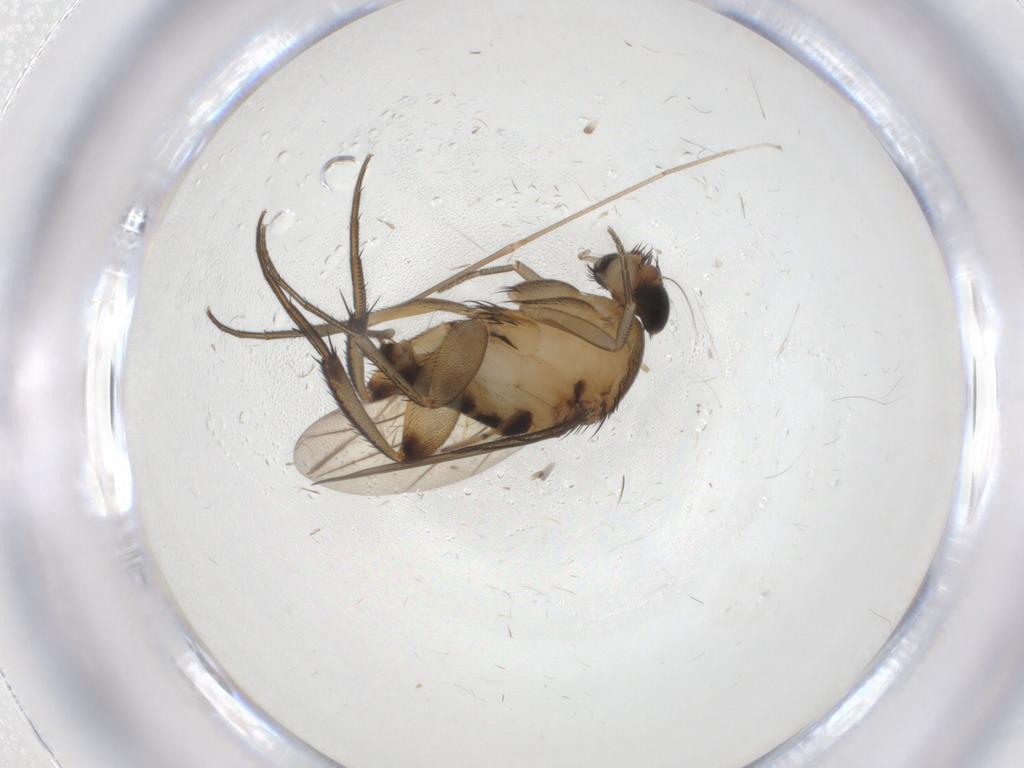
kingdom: Animalia
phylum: Arthropoda
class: Insecta
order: Diptera
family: Phoridae
